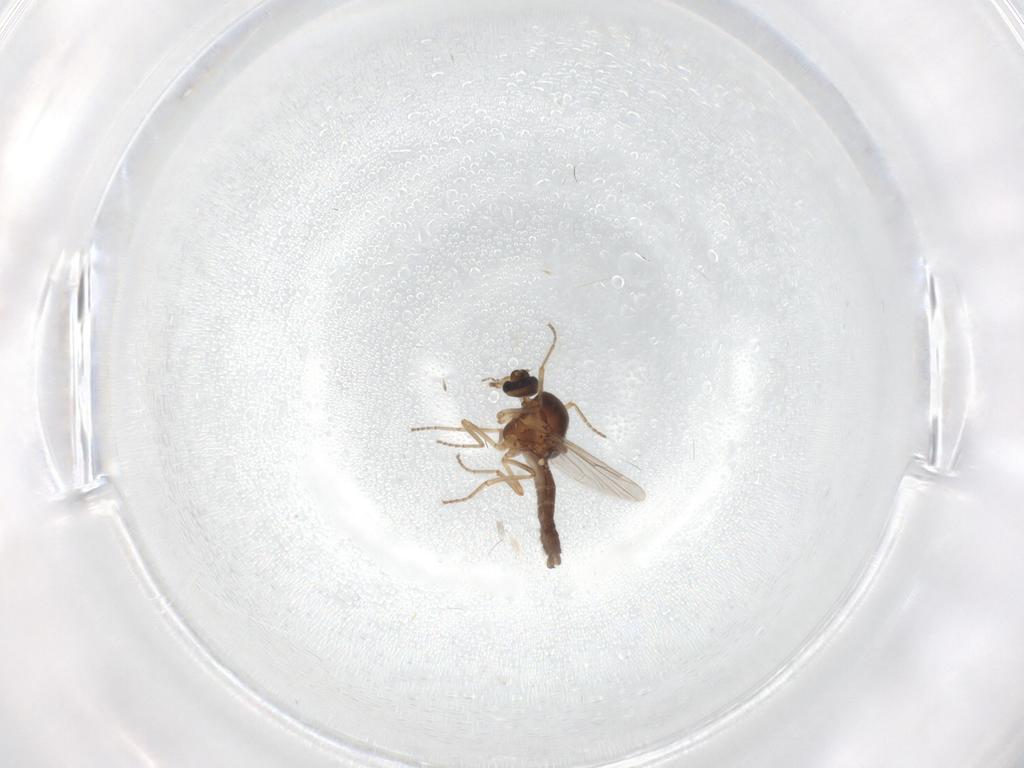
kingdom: Animalia
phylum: Arthropoda
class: Insecta
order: Diptera
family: Ceratopogonidae
